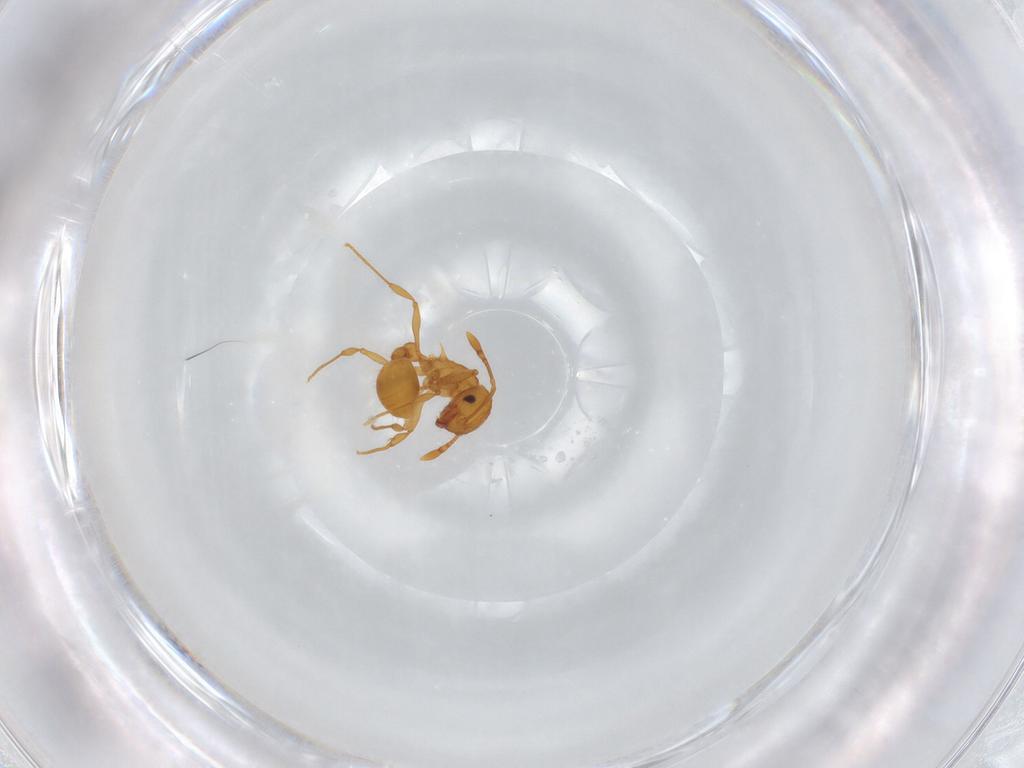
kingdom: Animalia
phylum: Arthropoda
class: Insecta
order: Hymenoptera
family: Formicidae
